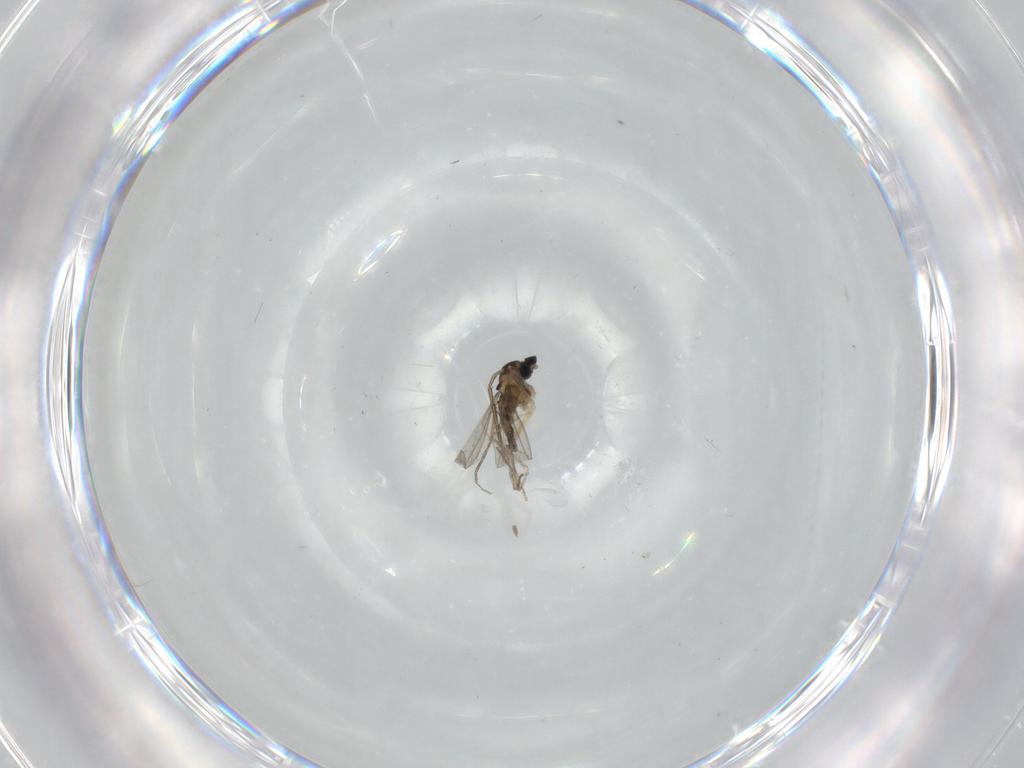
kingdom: Animalia
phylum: Arthropoda
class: Insecta
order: Diptera
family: Cecidomyiidae
